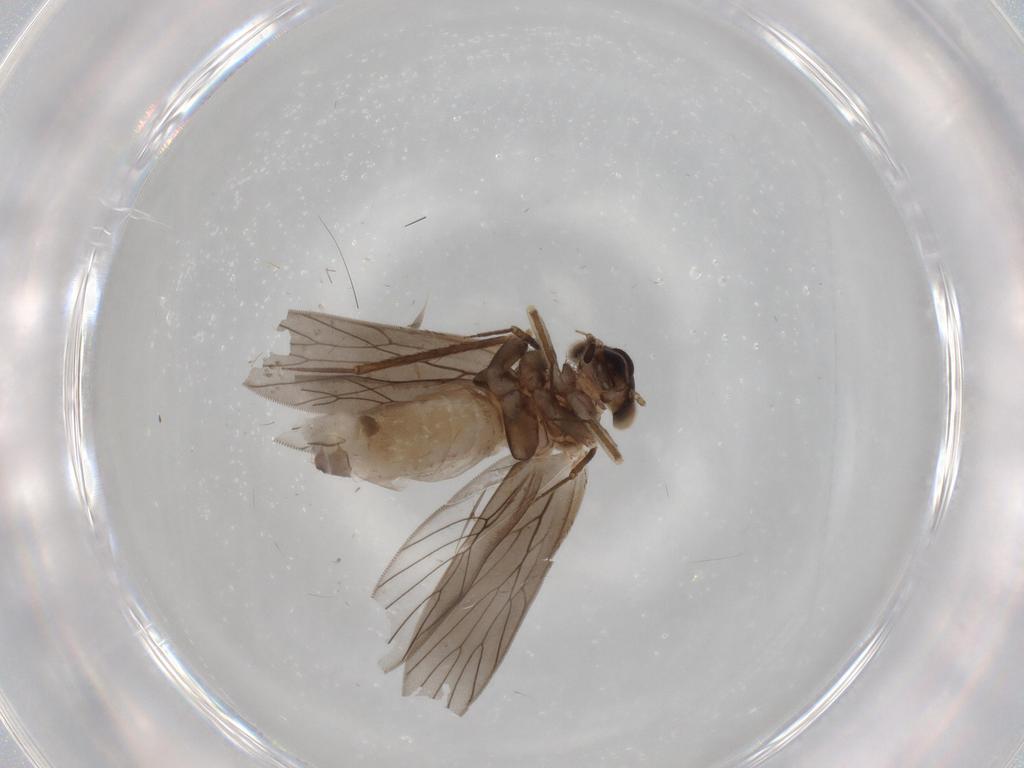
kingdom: Animalia
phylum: Arthropoda
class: Insecta
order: Psocodea
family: Lepidopsocidae
